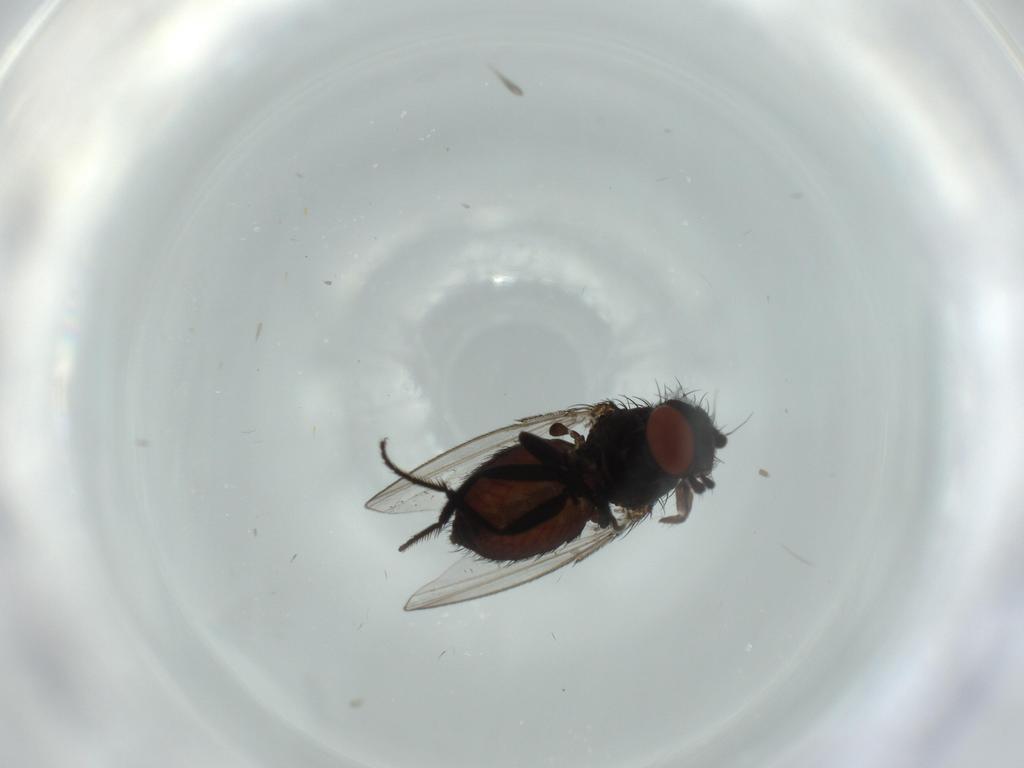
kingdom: Animalia
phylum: Arthropoda
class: Insecta
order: Diptera
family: Milichiidae
